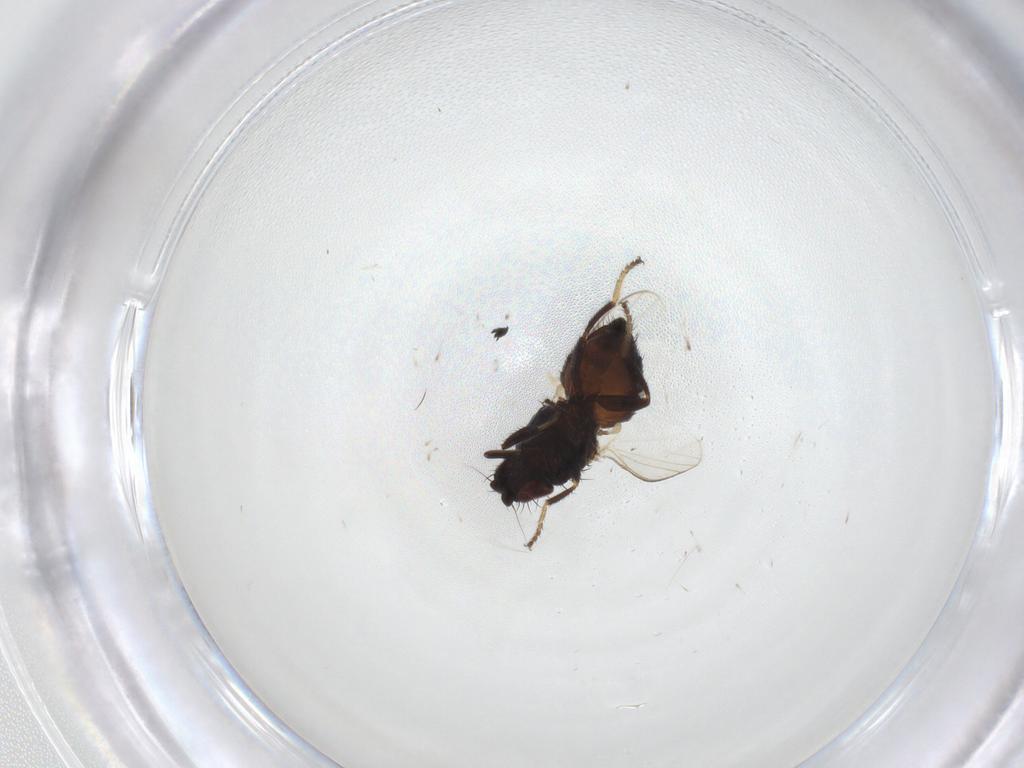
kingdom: Animalia
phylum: Arthropoda
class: Insecta
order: Diptera
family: Milichiidae
